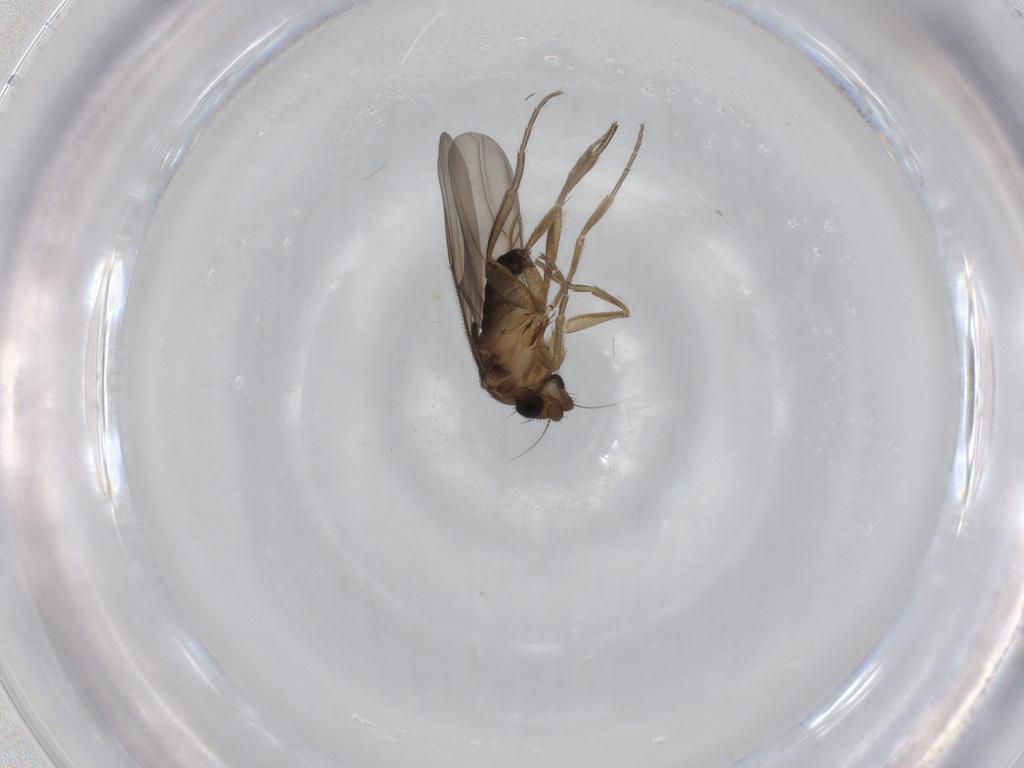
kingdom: Animalia
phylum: Arthropoda
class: Insecta
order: Diptera
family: Phoridae
